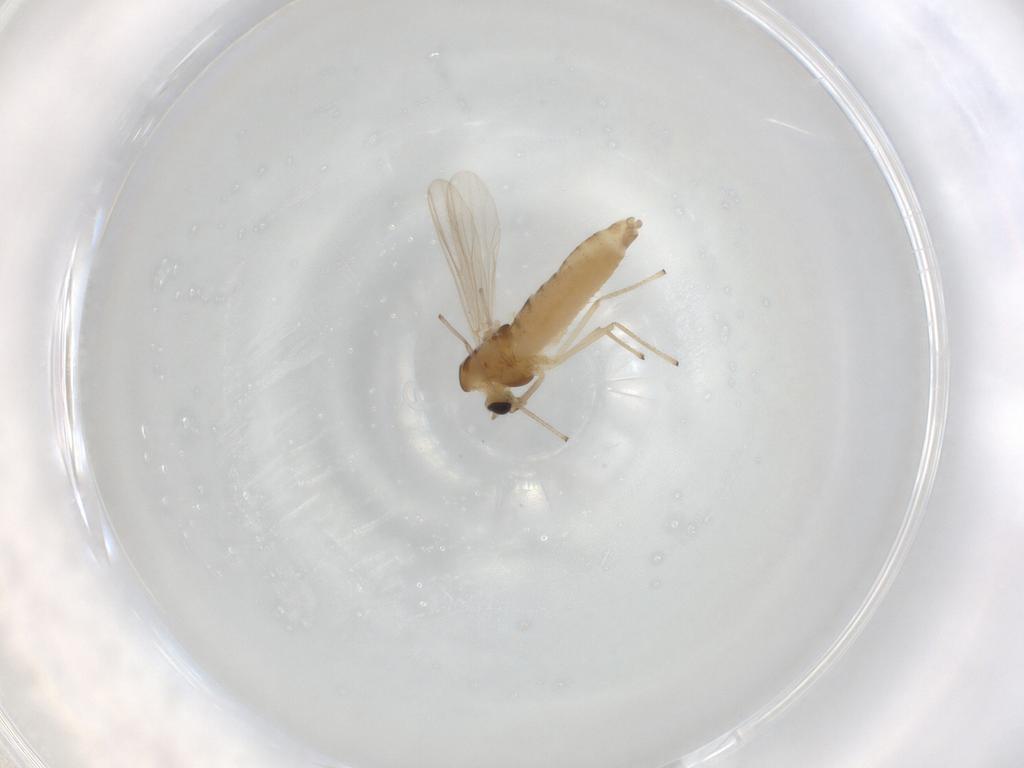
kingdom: Animalia
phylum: Arthropoda
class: Insecta
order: Diptera
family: Chironomidae
